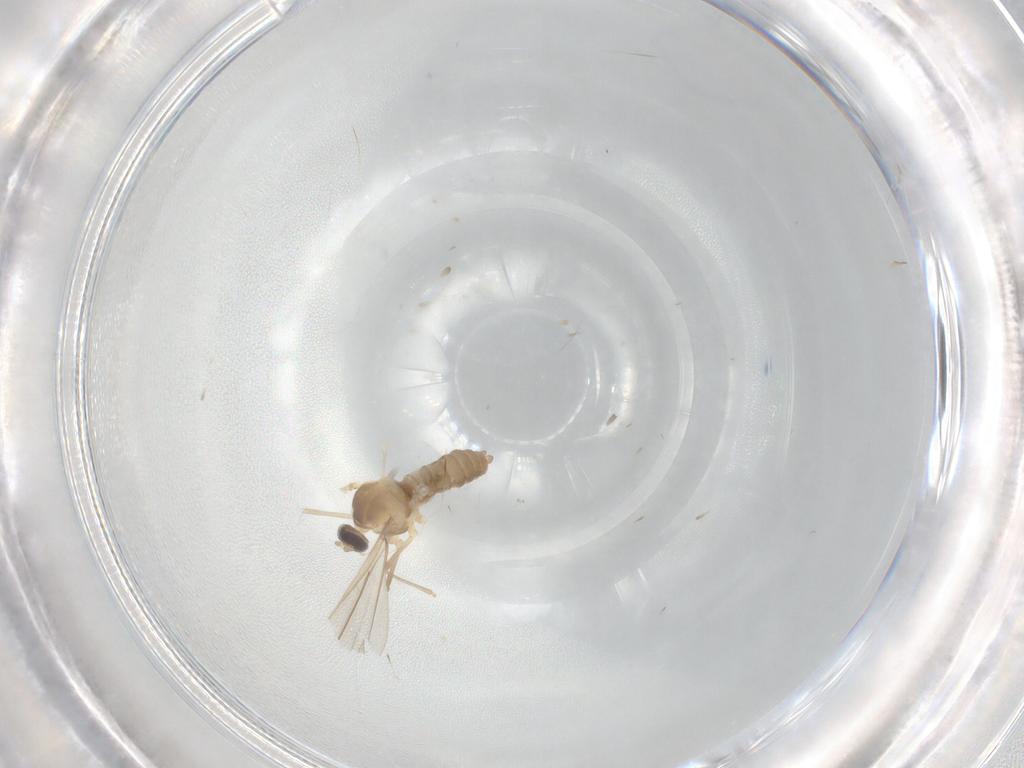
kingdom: Animalia
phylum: Arthropoda
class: Insecta
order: Diptera
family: Cecidomyiidae
